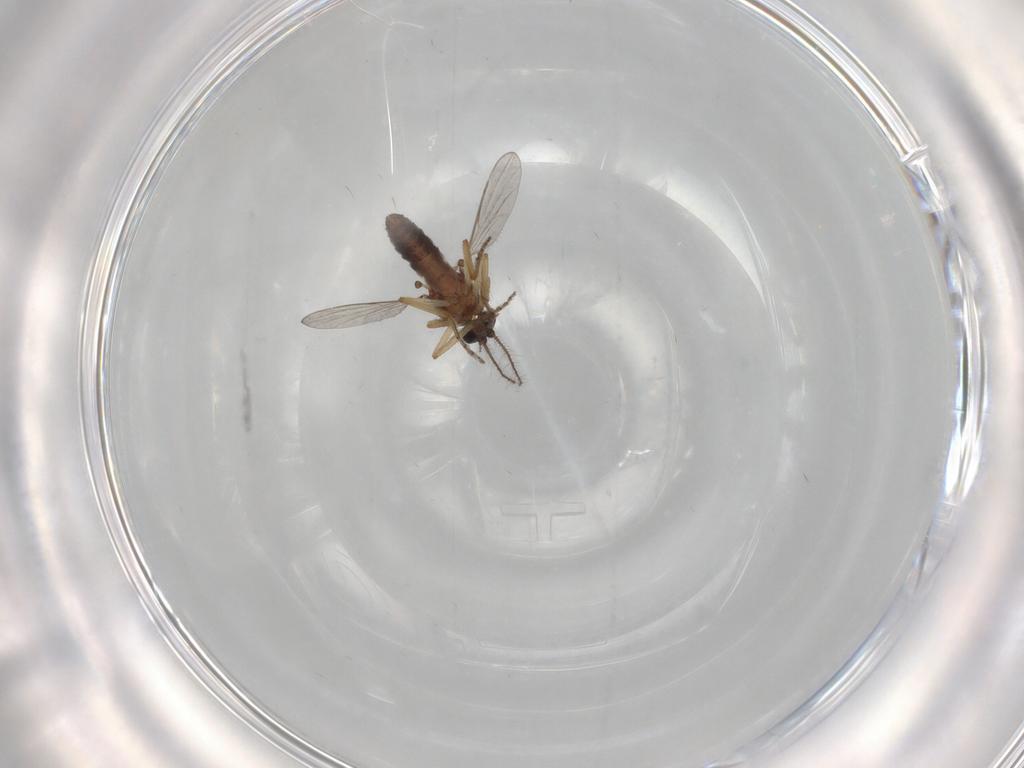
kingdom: Animalia
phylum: Arthropoda
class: Insecta
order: Diptera
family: Ceratopogonidae
